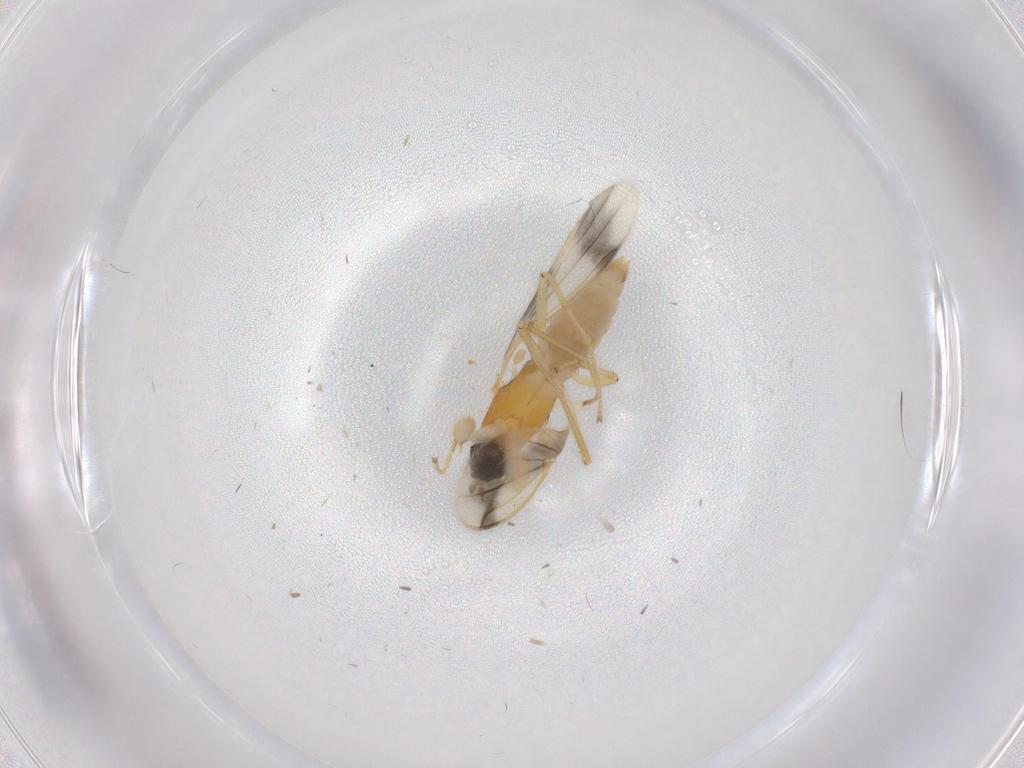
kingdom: Animalia
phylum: Arthropoda
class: Insecta
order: Diptera
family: Empididae
